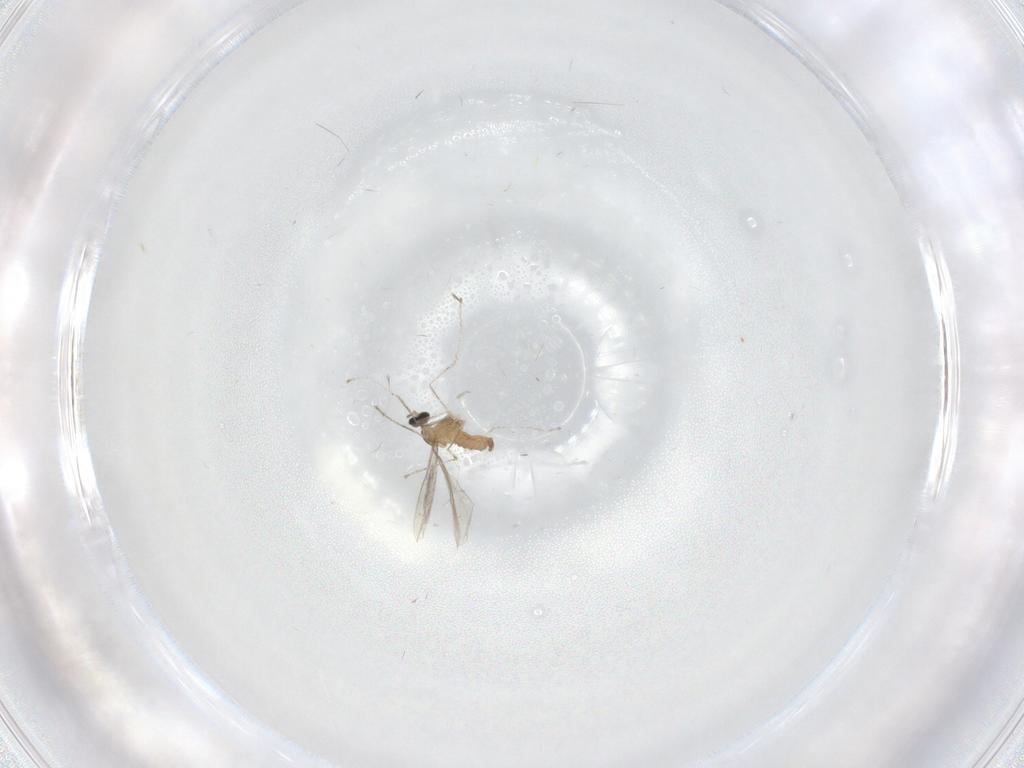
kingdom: Animalia
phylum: Arthropoda
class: Insecta
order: Diptera
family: Cecidomyiidae
